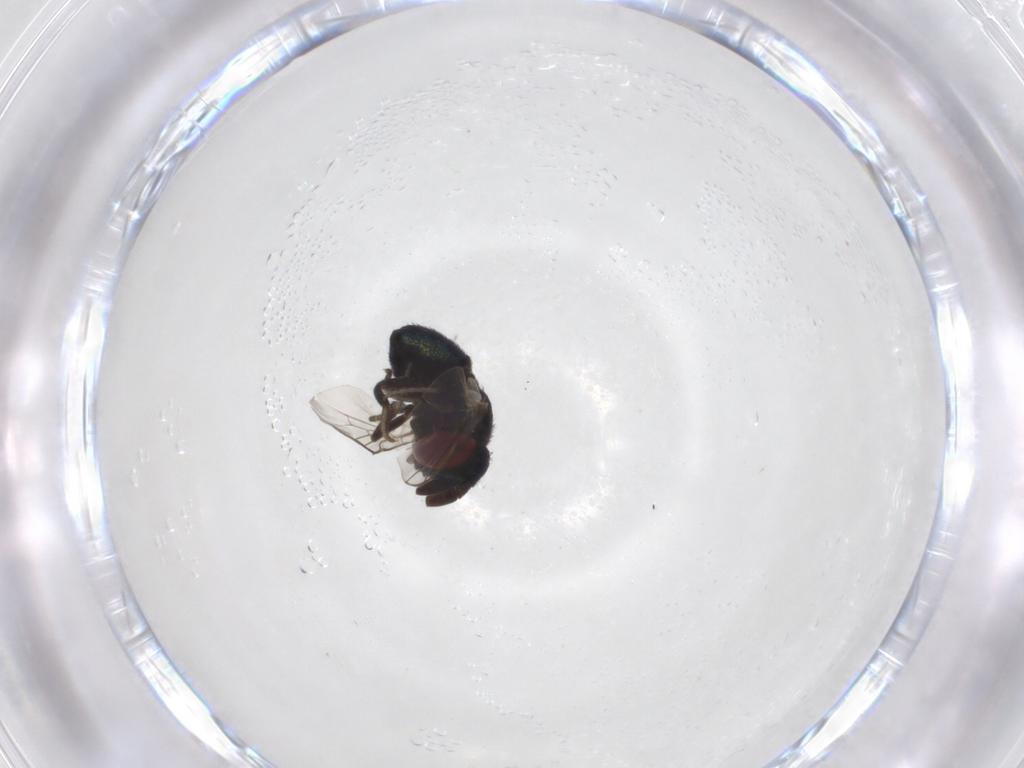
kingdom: Animalia
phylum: Arthropoda
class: Insecta
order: Diptera
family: Cryptochetidae
